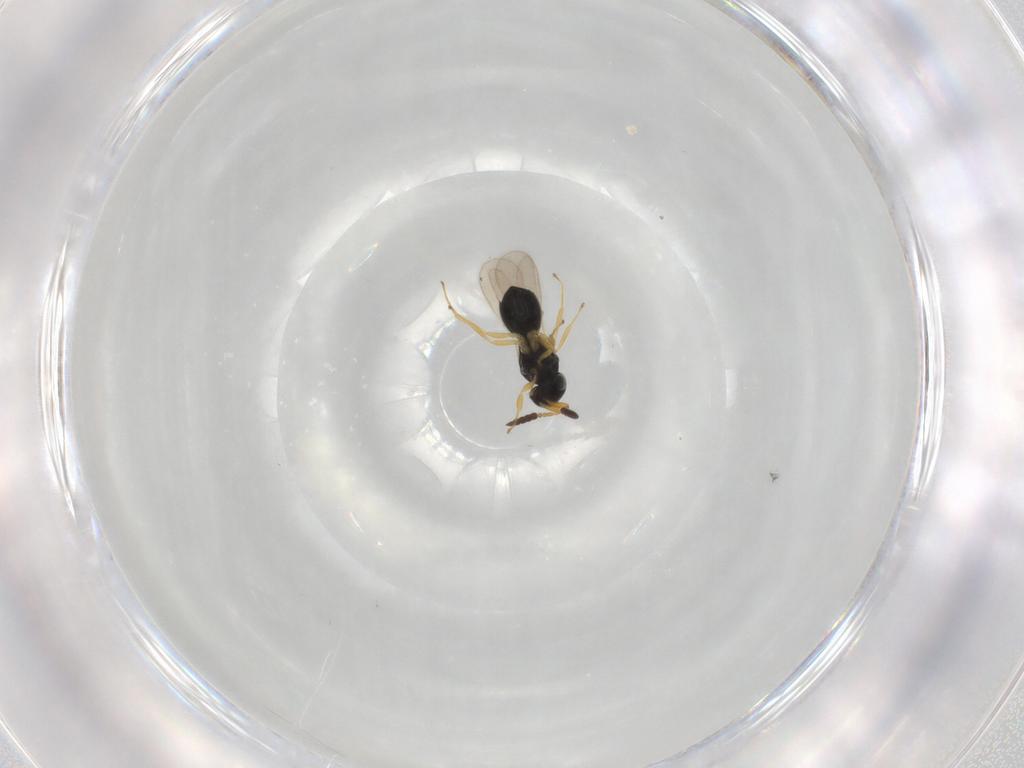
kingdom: Animalia
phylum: Arthropoda
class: Insecta
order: Hymenoptera
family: Scelionidae
